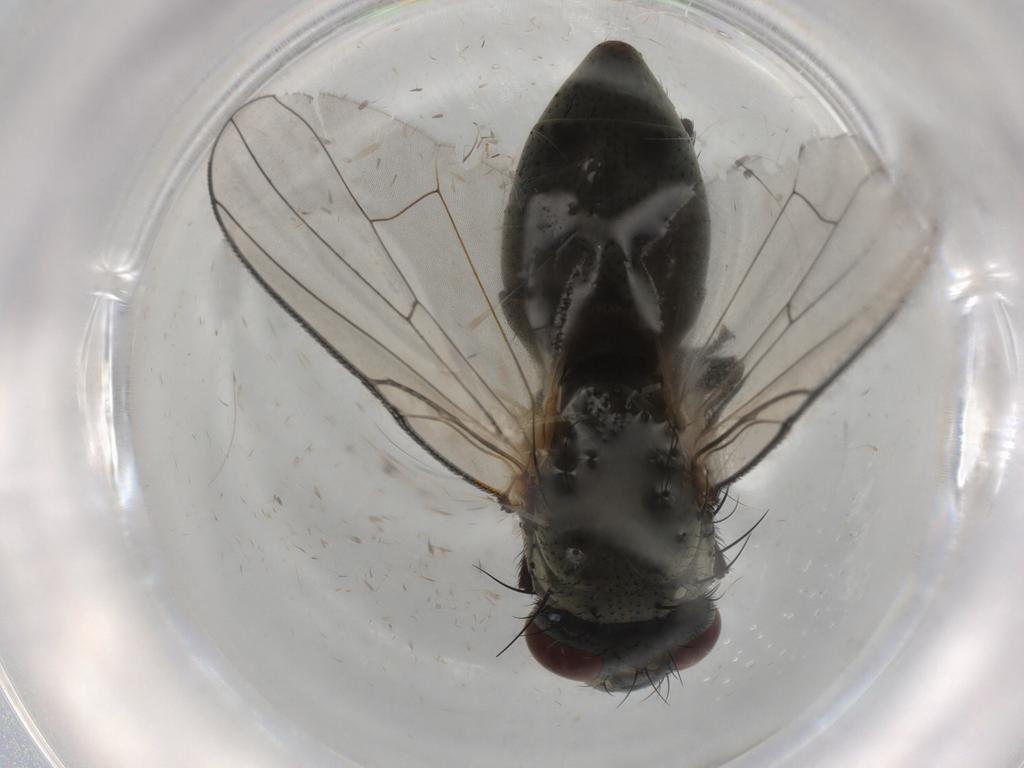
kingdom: Animalia
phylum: Arthropoda
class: Insecta
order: Diptera
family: Muscidae
